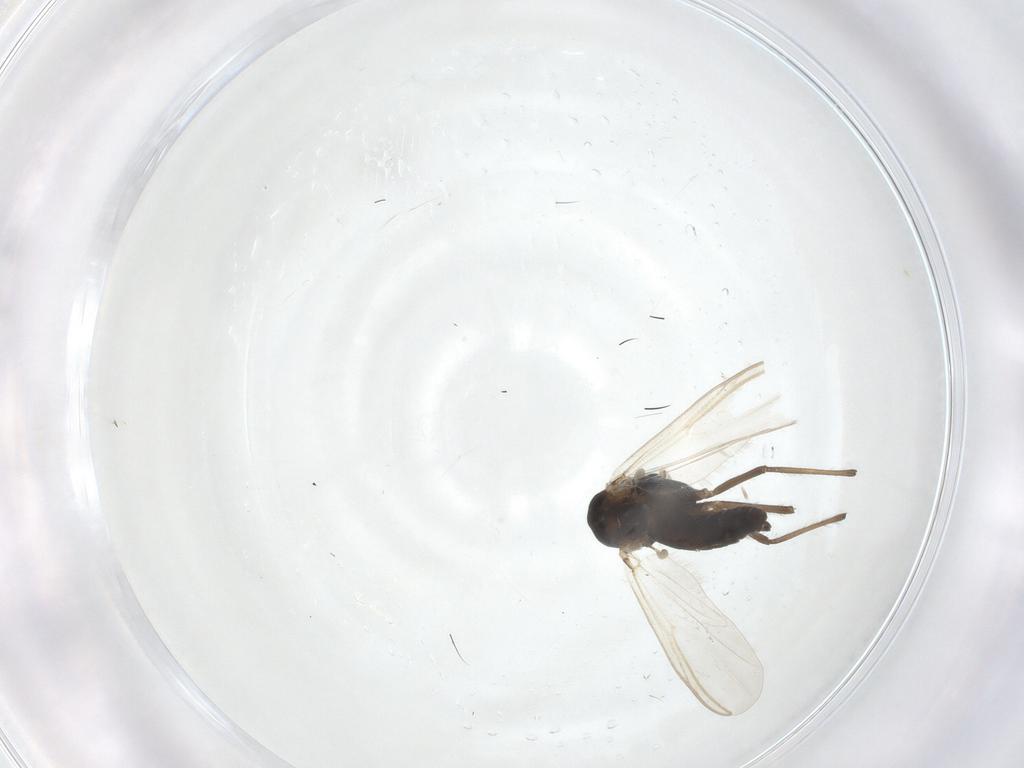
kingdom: Animalia
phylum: Arthropoda
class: Insecta
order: Diptera
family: Chironomidae
